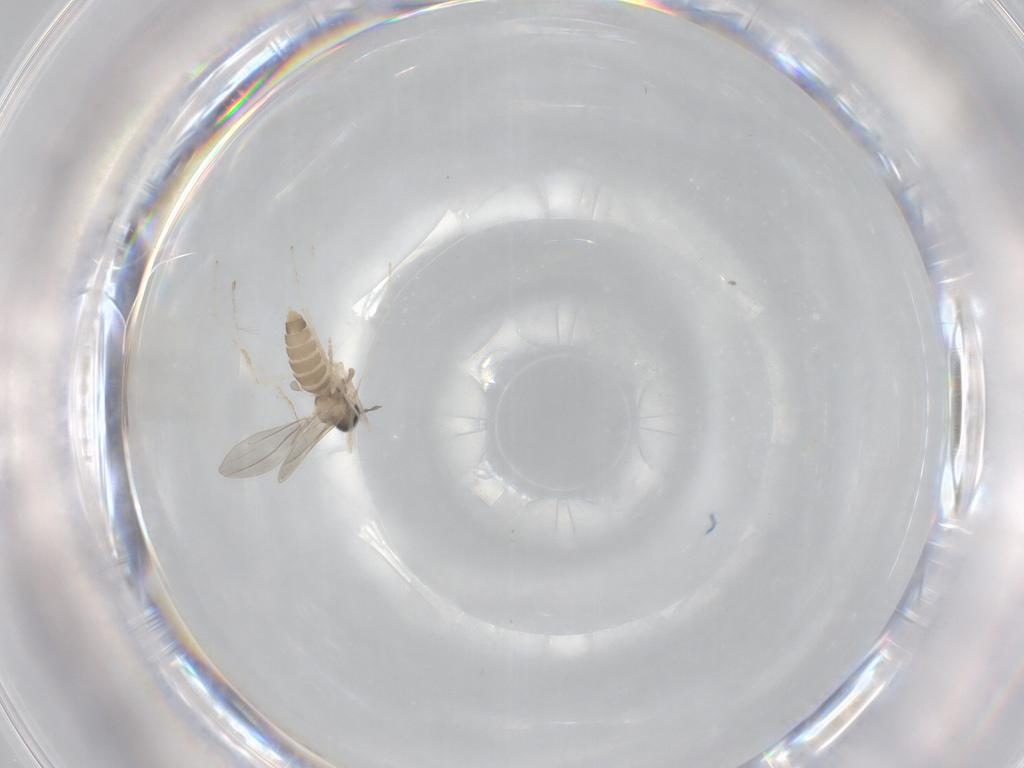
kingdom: Animalia
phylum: Arthropoda
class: Insecta
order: Diptera
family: Cecidomyiidae
